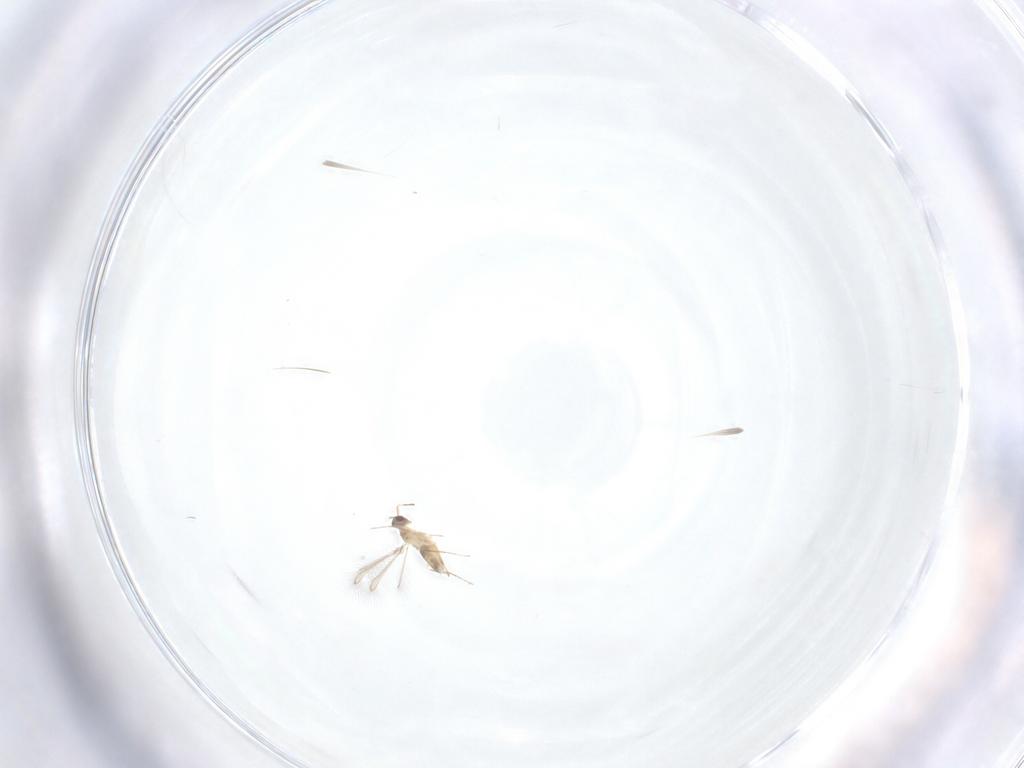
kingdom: Animalia
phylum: Arthropoda
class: Insecta
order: Hymenoptera
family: Mymaridae
